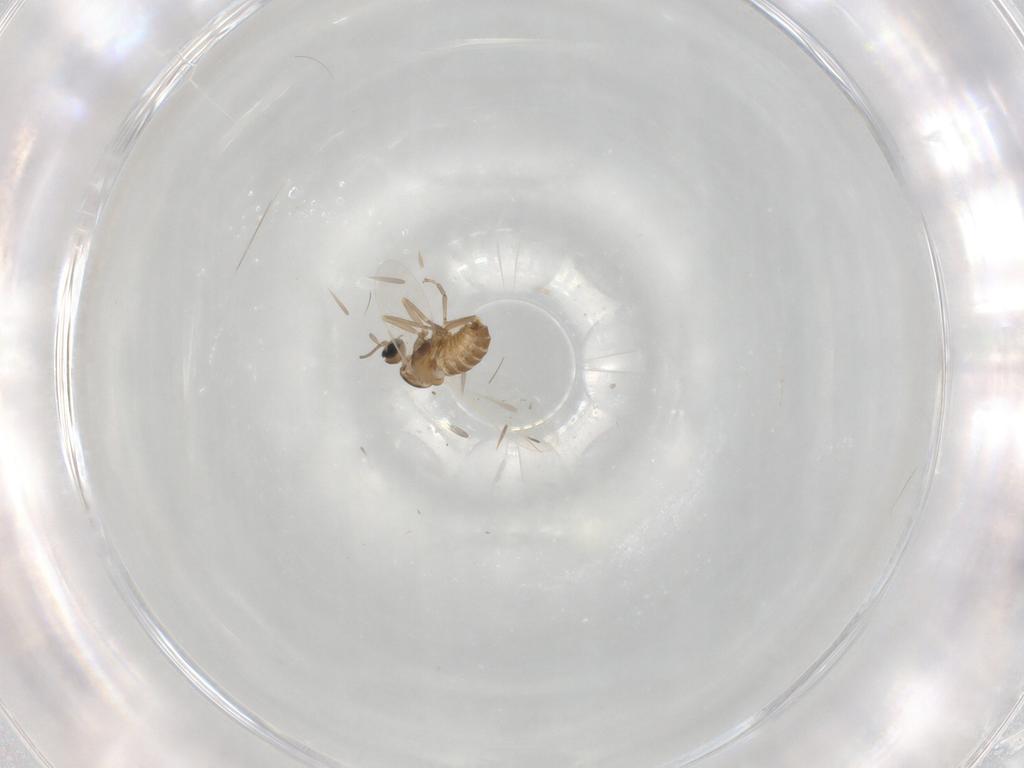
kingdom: Animalia
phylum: Arthropoda
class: Insecta
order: Diptera
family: Cecidomyiidae
